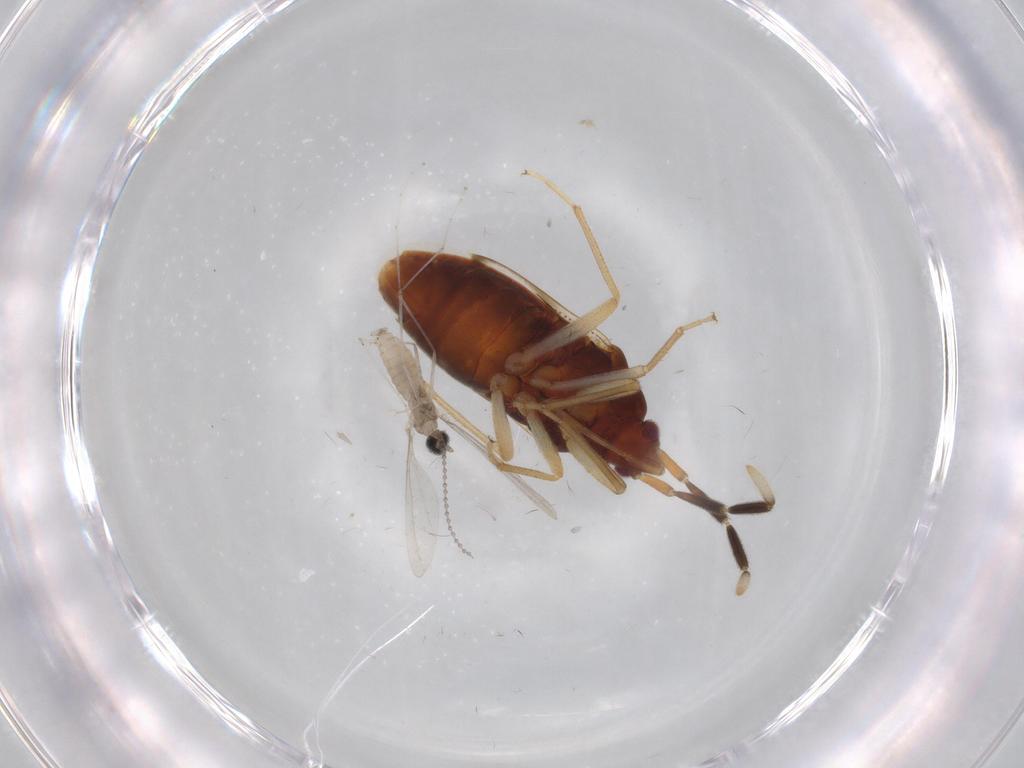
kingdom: Animalia
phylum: Arthropoda
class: Insecta
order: Hemiptera
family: Rhyparochromidae
